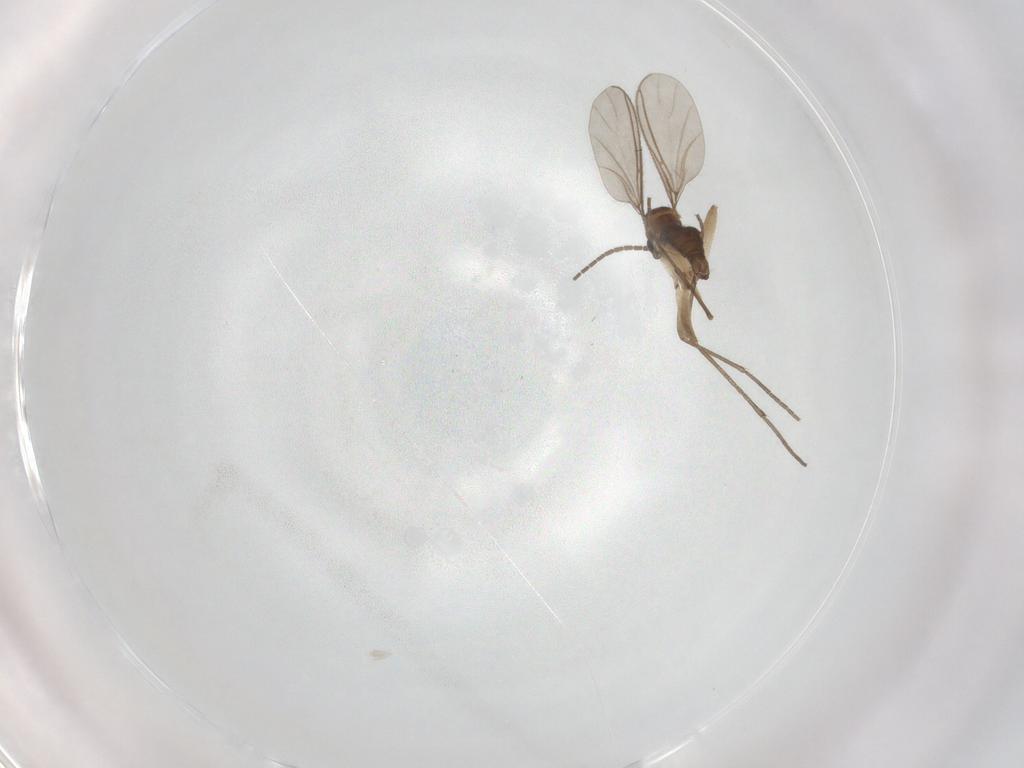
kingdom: Animalia
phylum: Arthropoda
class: Insecta
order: Diptera
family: Sciaridae
